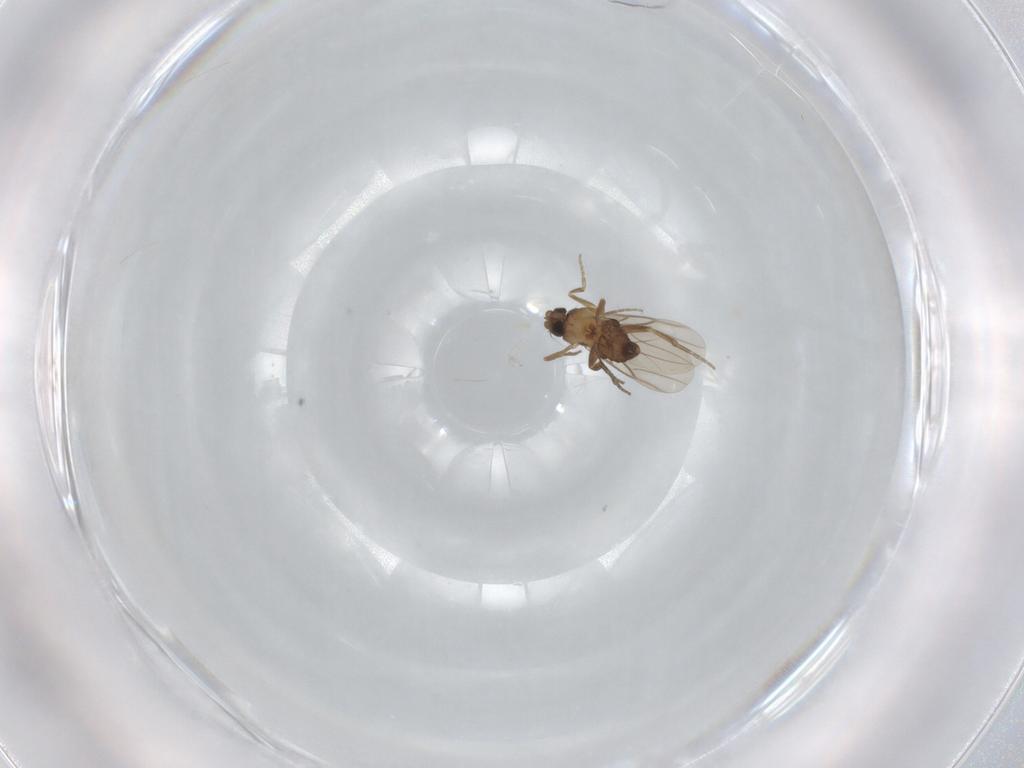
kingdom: Animalia
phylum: Arthropoda
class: Insecta
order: Diptera
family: Phoridae
